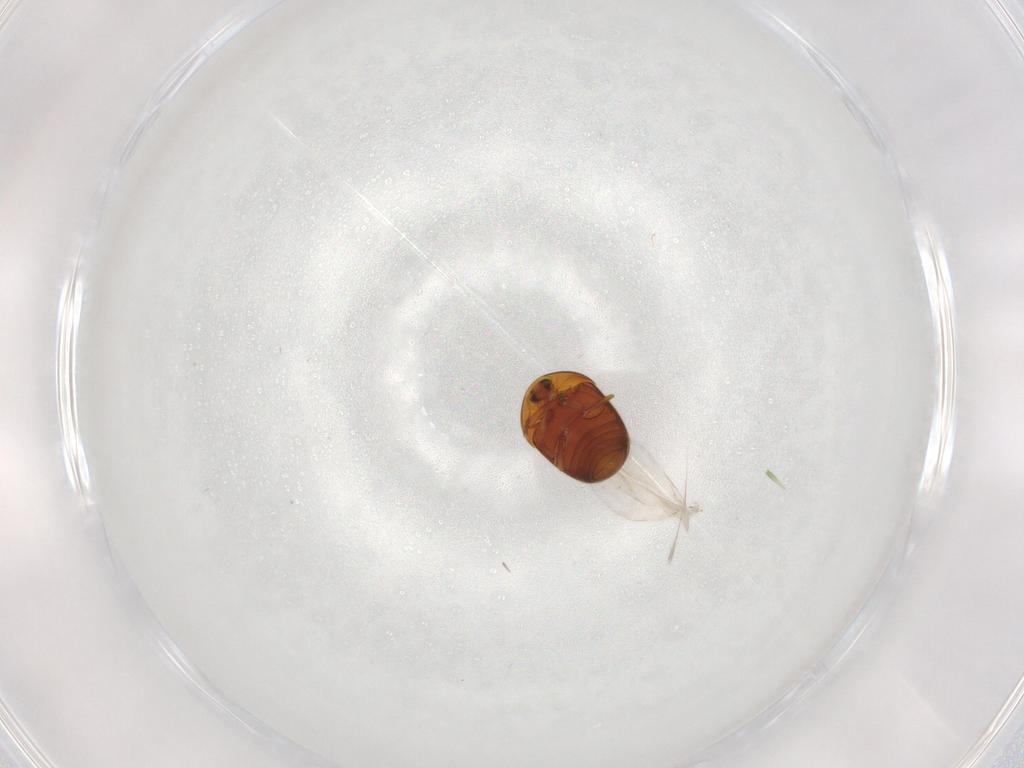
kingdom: Animalia
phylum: Arthropoda
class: Insecta
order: Coleoptera
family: Corylophidae
